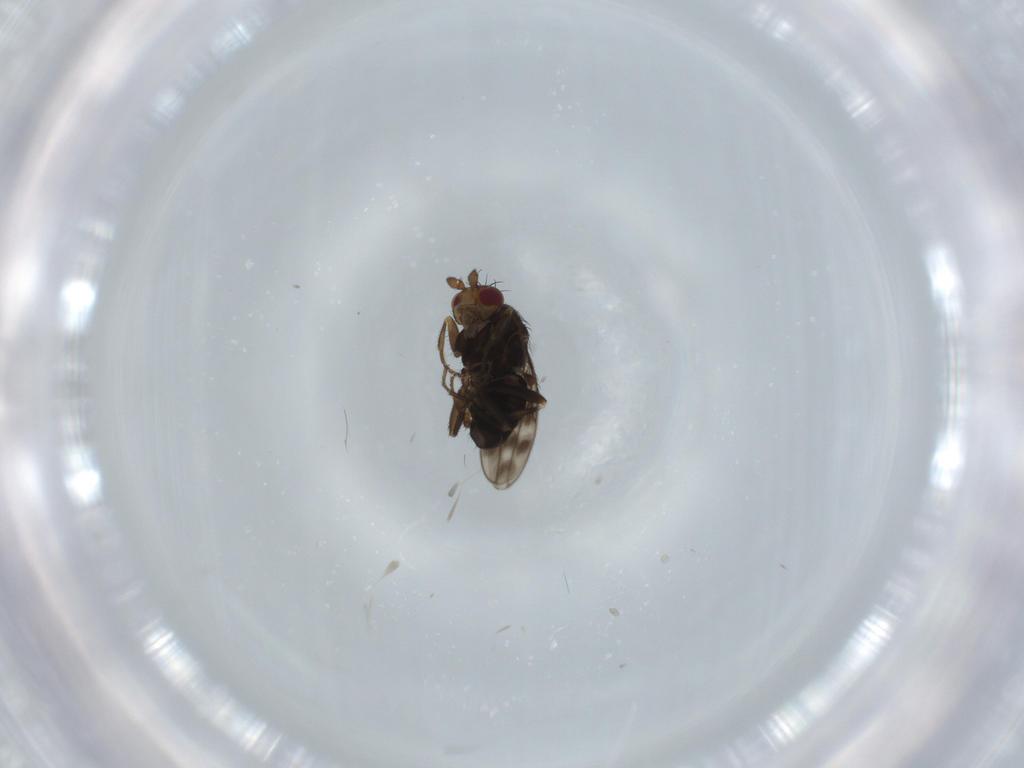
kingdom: Animalia
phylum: Arthropoda
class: Insecta
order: Diptera
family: Sphaeroceridae
